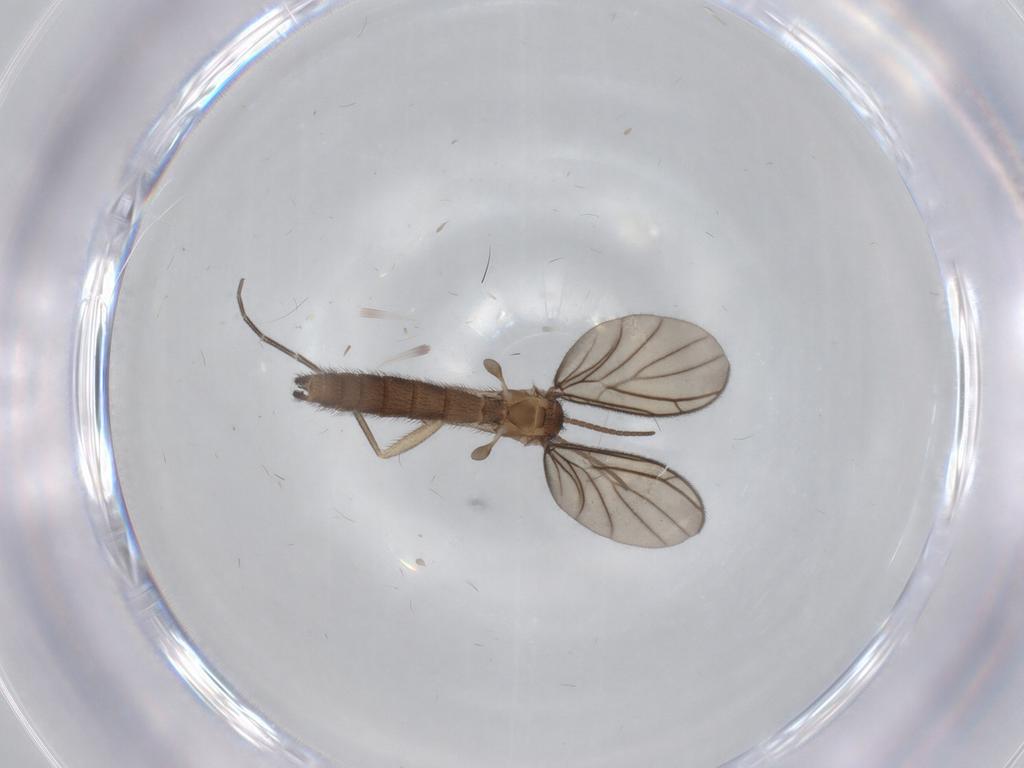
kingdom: Animalia
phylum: Arthropoda
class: Insecta
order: Diptera
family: Keroplatidae
